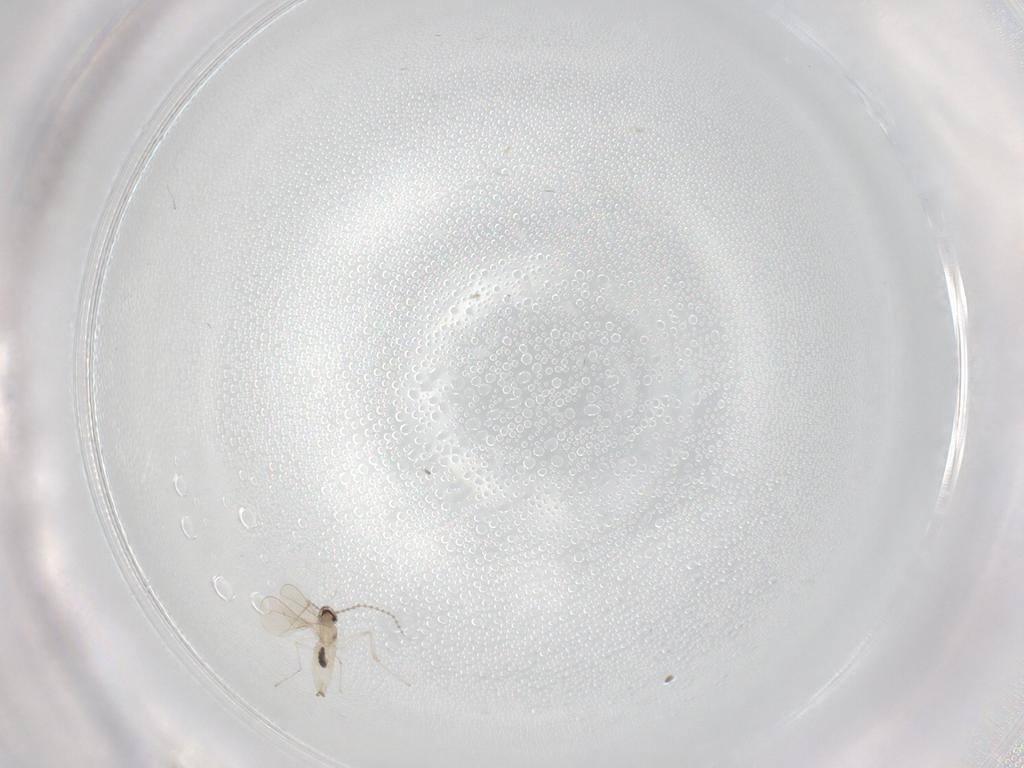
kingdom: Animalia
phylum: Arthropoda
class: Insecta
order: Diptera
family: Cecidomyiidae
